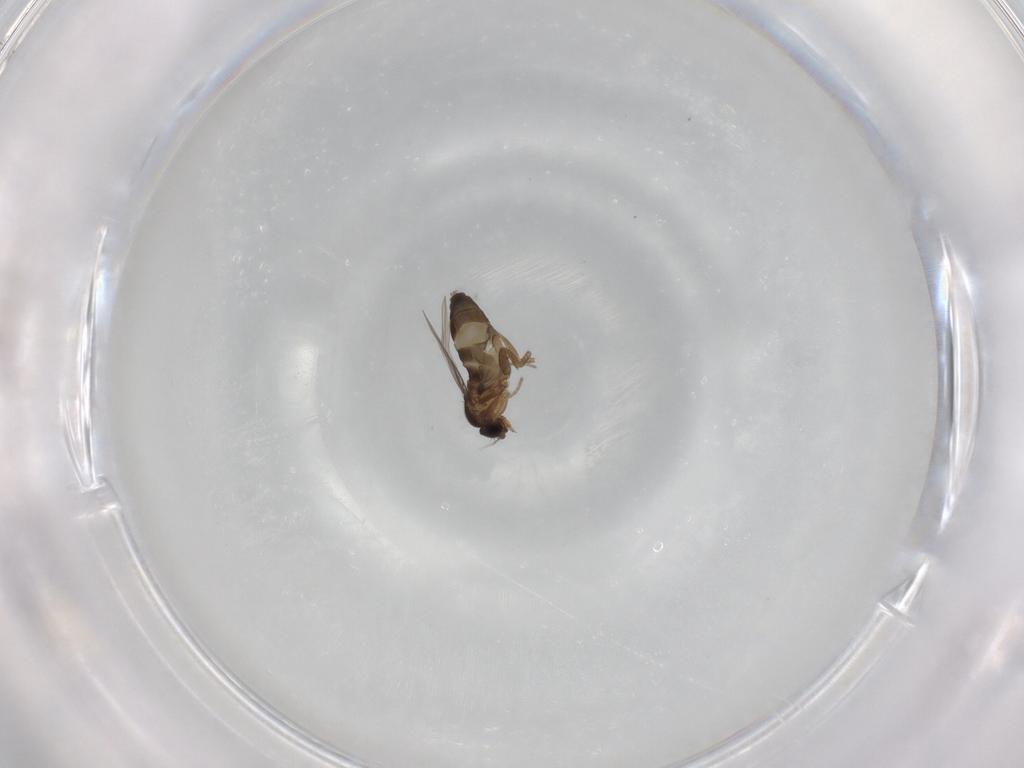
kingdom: Animalia
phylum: Arthropoda
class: Insecta
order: Diptera
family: Phoridae
